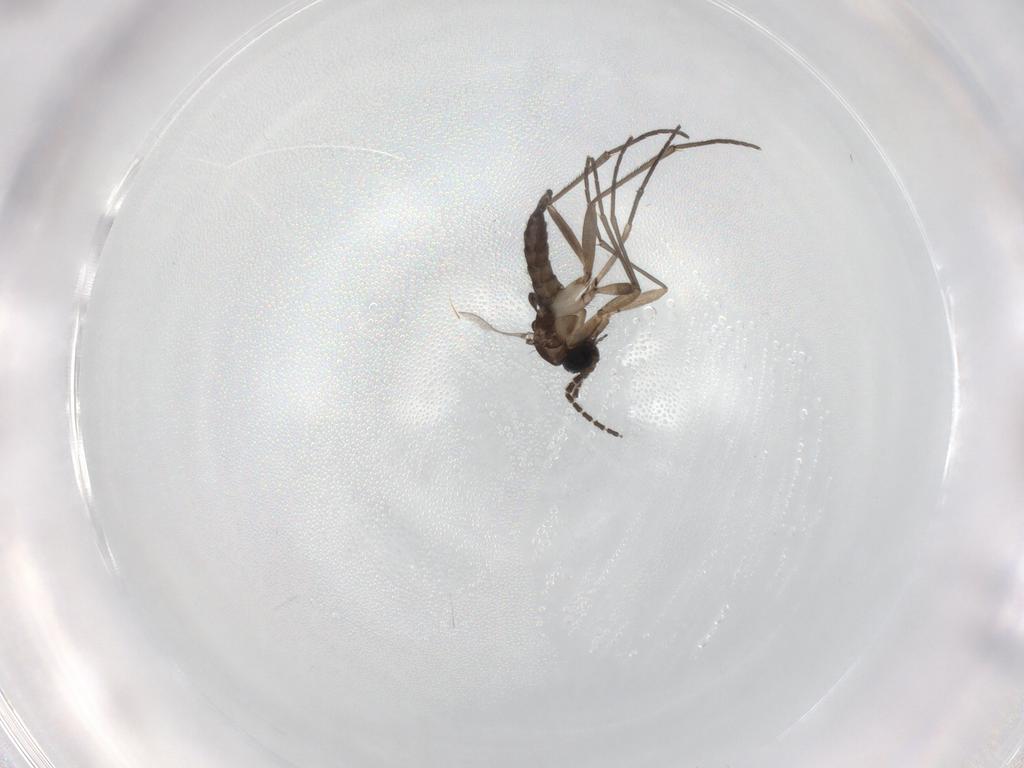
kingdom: Animalia
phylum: Arthropoda
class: Insecta
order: Diptera
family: Sciaridae
